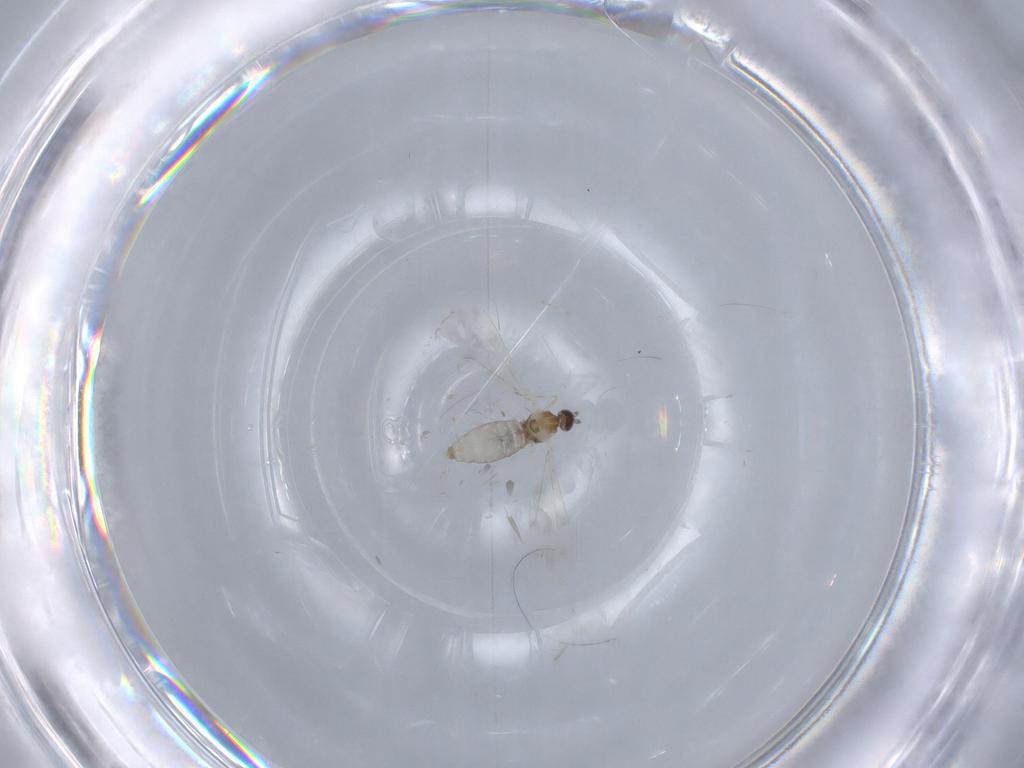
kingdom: Animalia
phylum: Arthropoda
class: Insecta
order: Diptera
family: Cecidomyiidae
